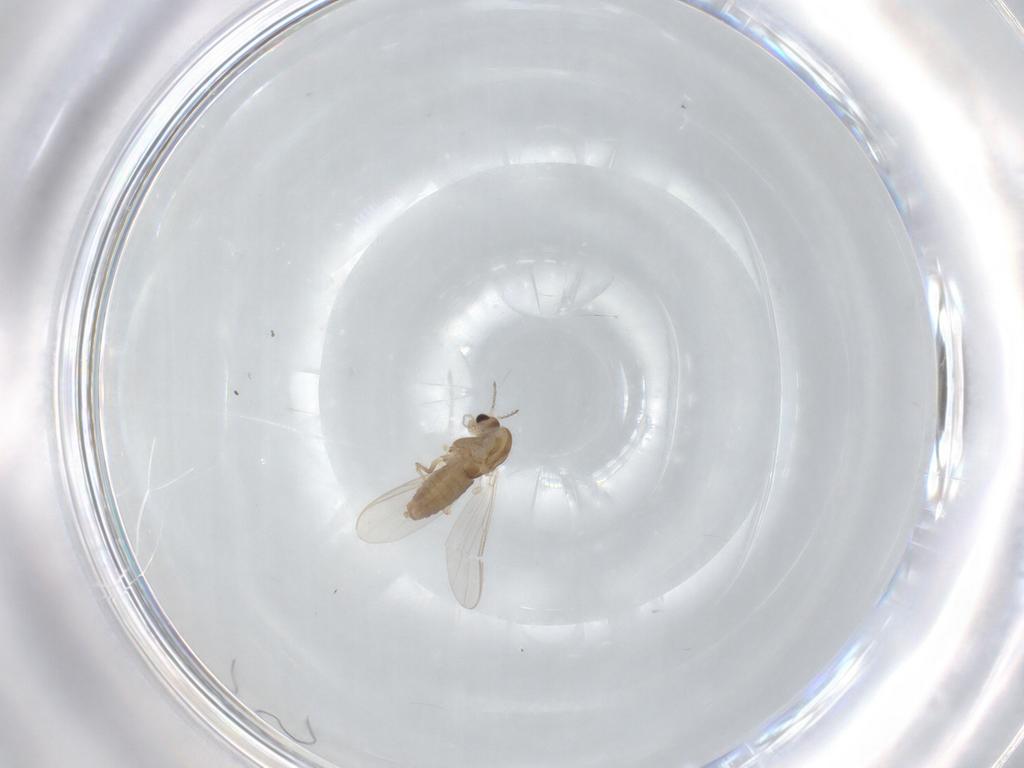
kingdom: Animalia
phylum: Arthropoda
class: Insecta
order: Diptera
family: Chironomidae
